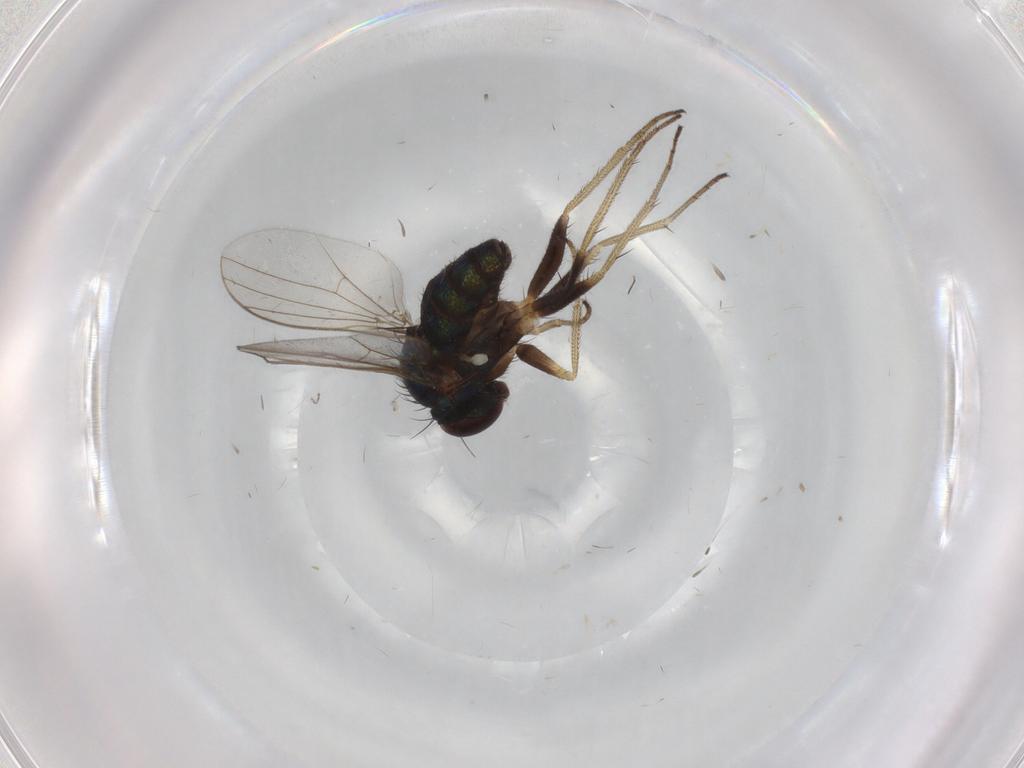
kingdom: Animalia
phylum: Arthropoda
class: Insecta
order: Diptera
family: Dolichopodidae
